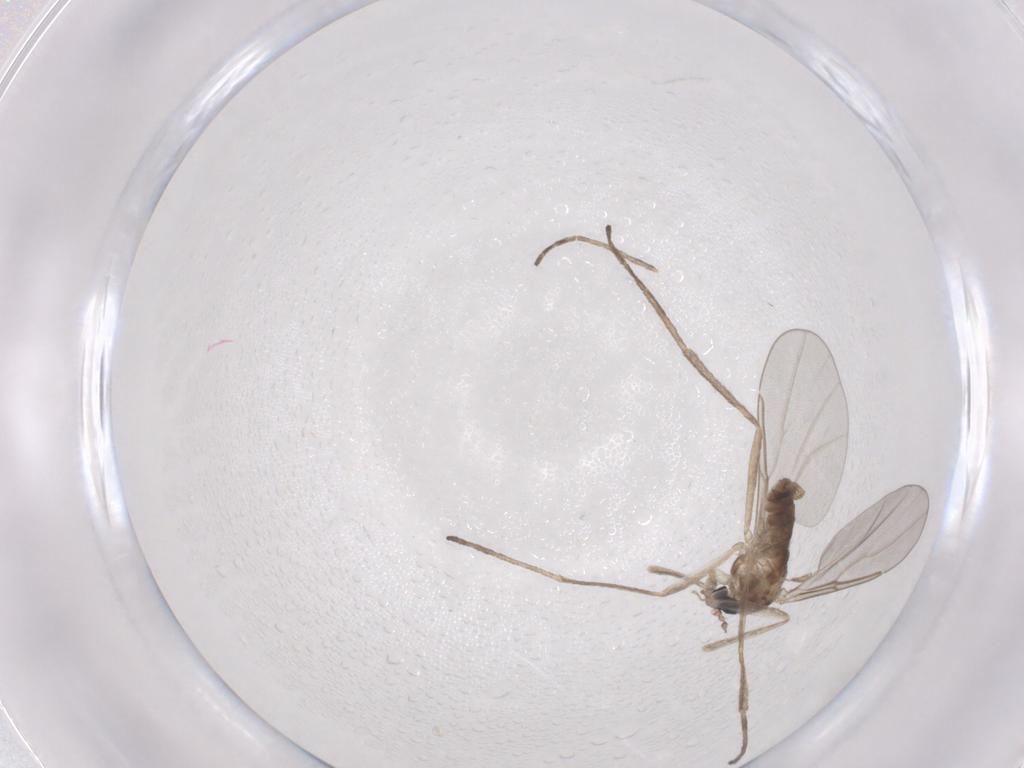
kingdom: Animalia
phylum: Arthropoda
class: Insecta
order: Diptera
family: Cecidomyiidae
